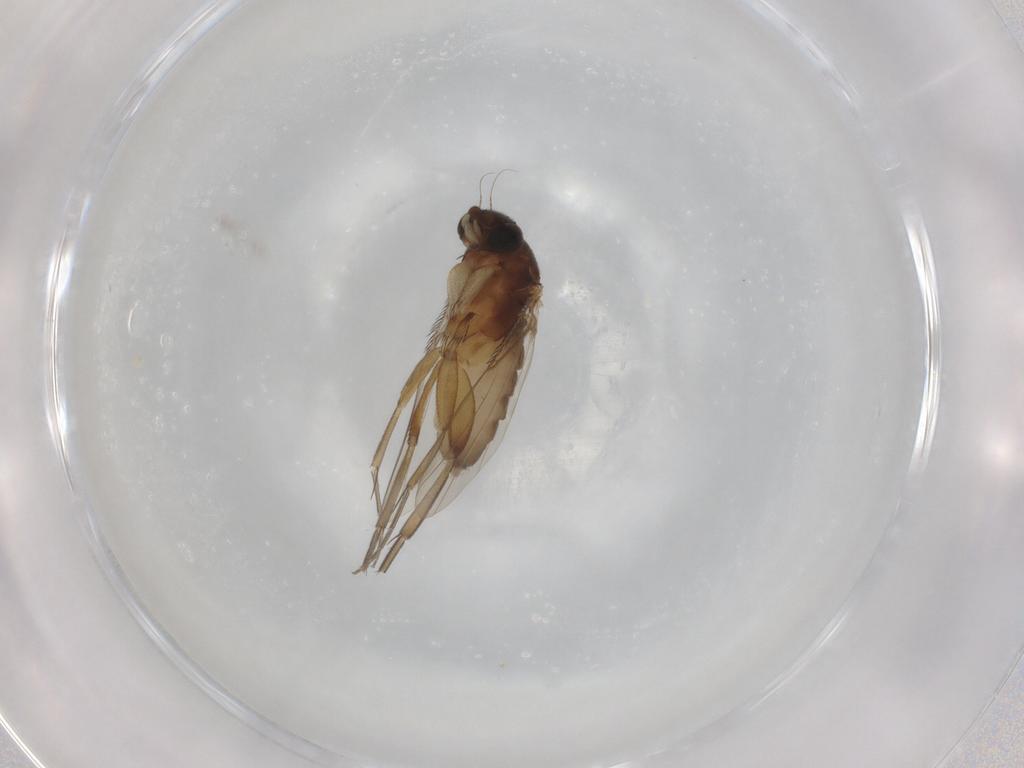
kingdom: Animalia
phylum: Arthropoda
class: Insecta
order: Diptera
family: Phoridae
